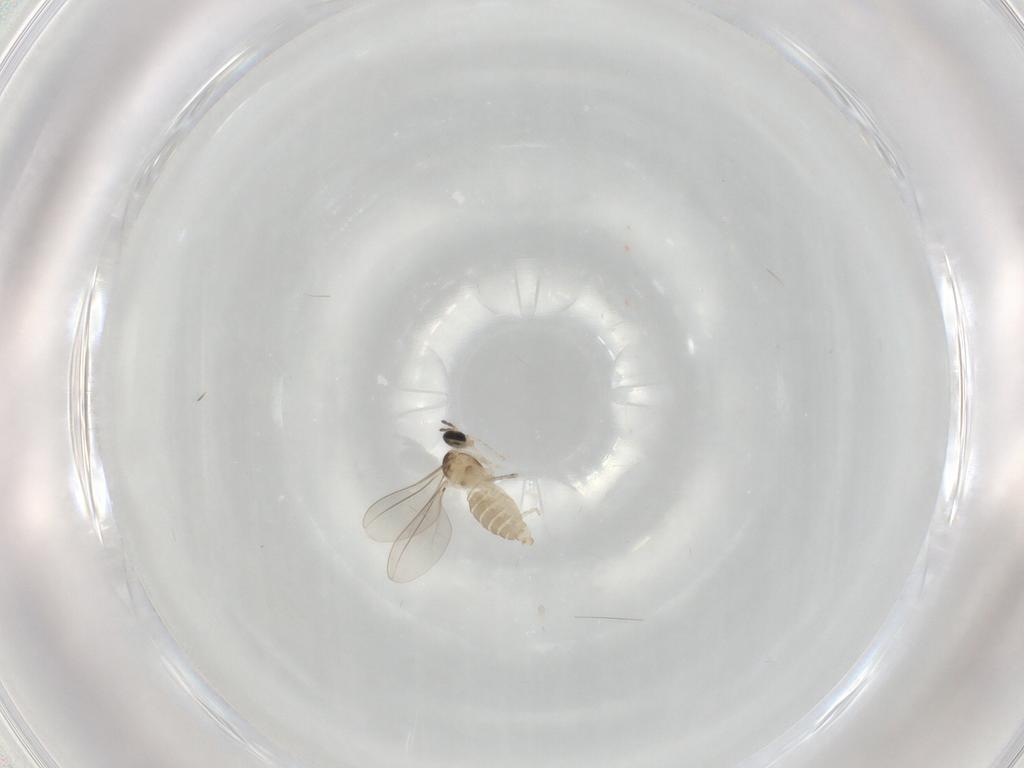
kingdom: Animalia
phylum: Arthropoda
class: Insecta
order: Diptera
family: Cecidomyiidae
